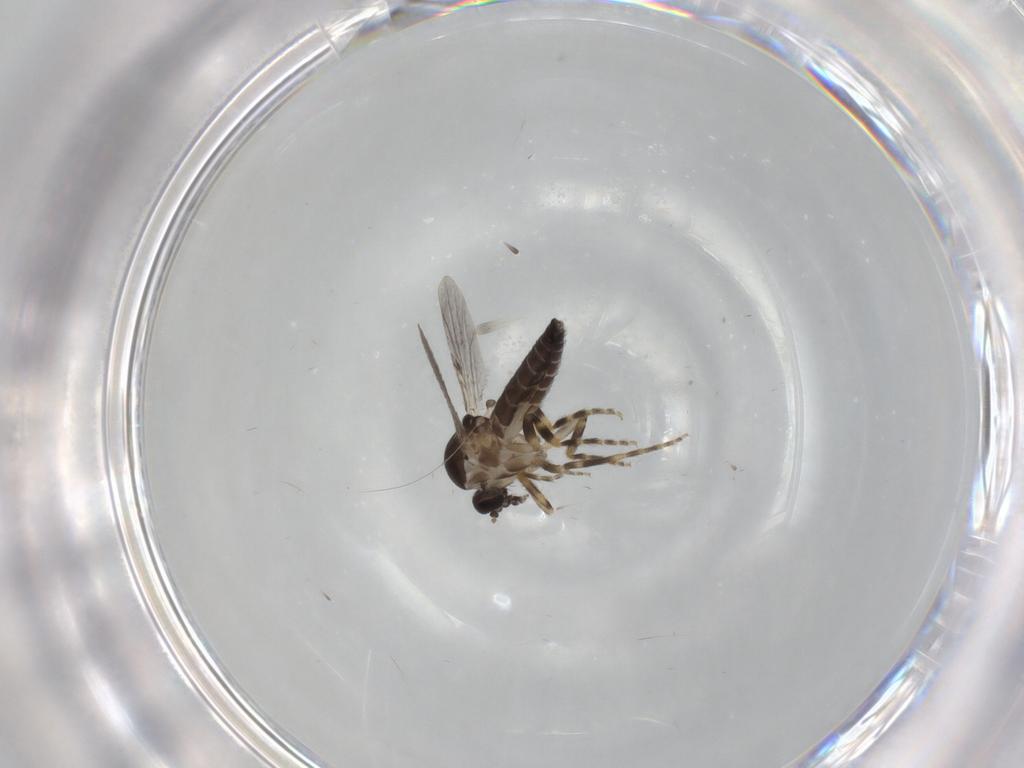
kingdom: Animalia
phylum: Arthropoda
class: Insecta
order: Diptera
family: Ceratopogonidae
